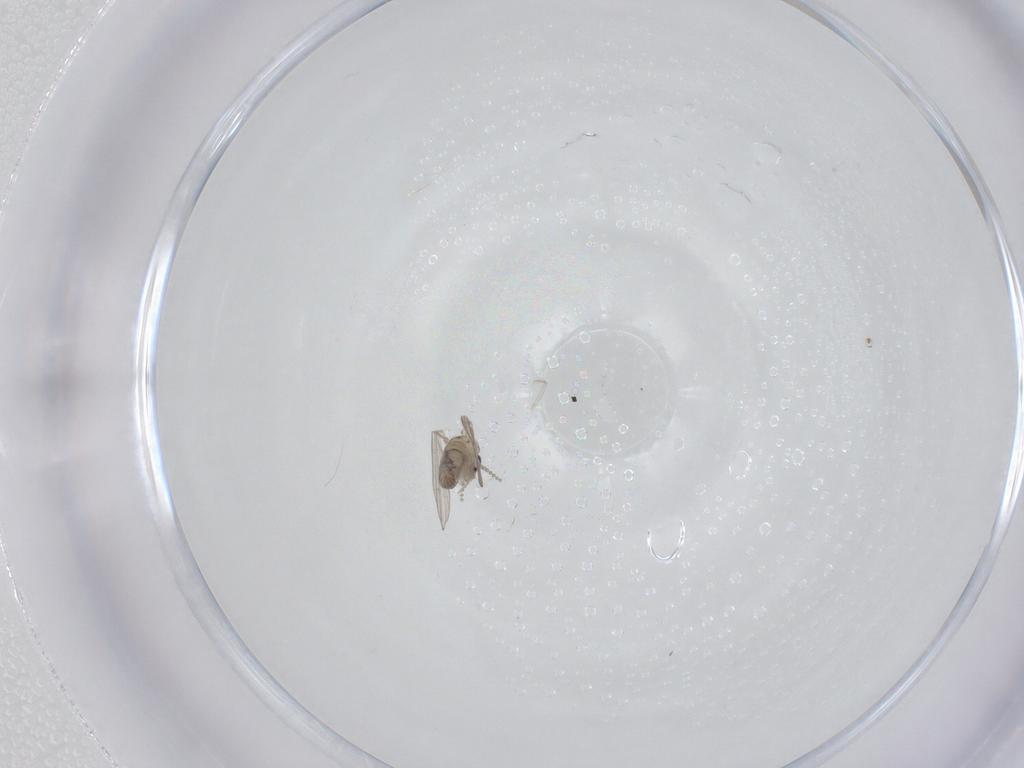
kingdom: Animalia
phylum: Arthropoda
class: Insecta
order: Diptera
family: Psychodidae
